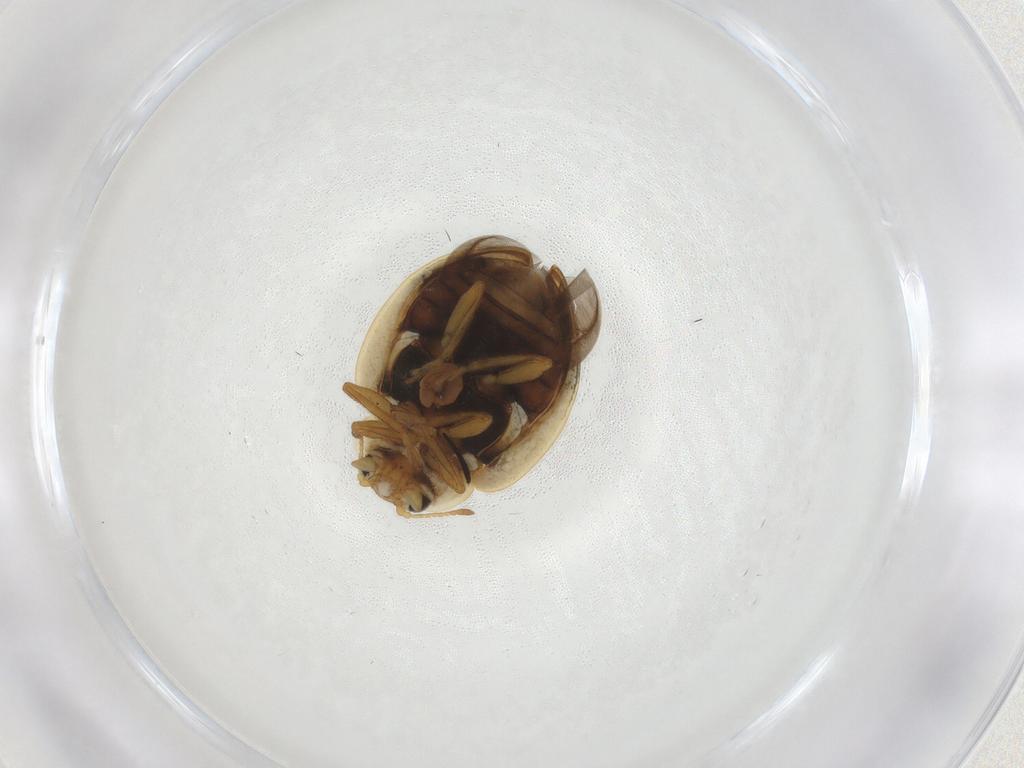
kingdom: Animalia
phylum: Arthropoda
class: Insecta
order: Coleoptera
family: Coccinellidae
